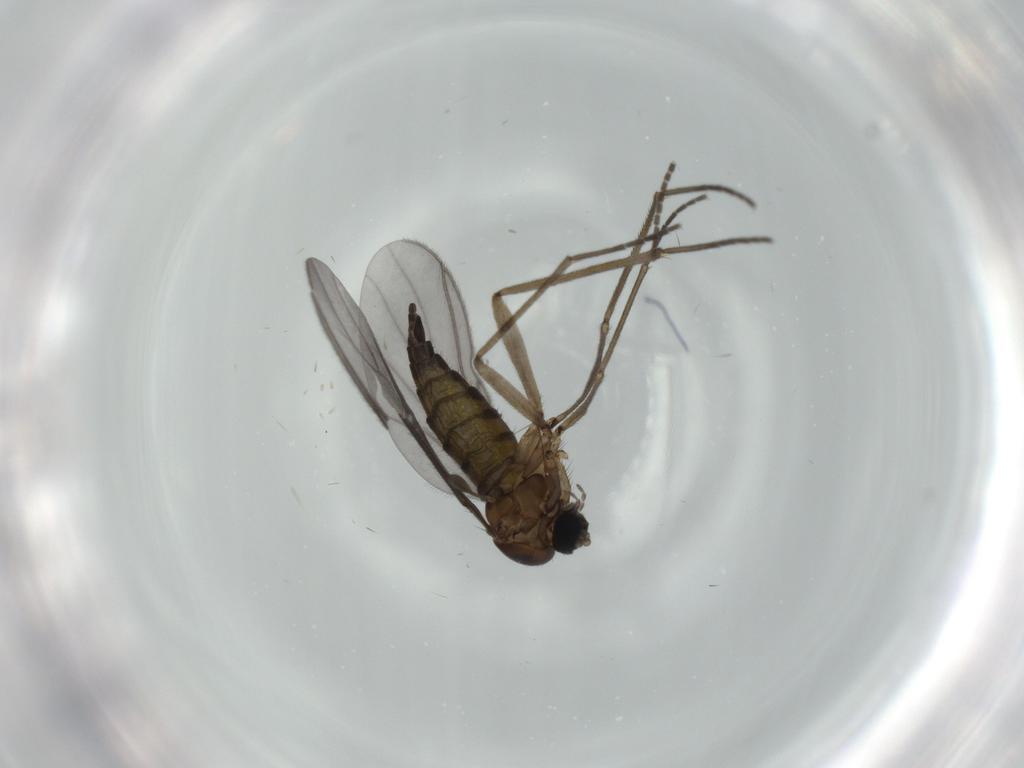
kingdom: Animalia
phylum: Arthropoda
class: Insecta
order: Diptera
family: Sciaridae
